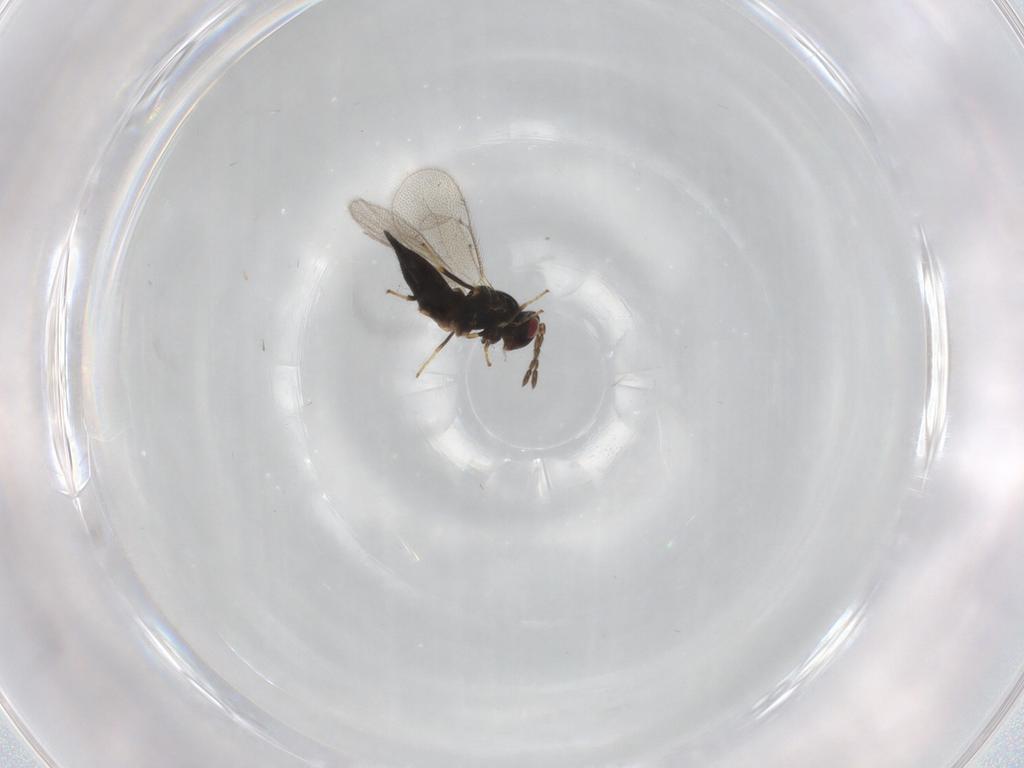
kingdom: Animalia
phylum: Arthropoda
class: Insecta
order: Hymenoptera
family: Eulophidae
